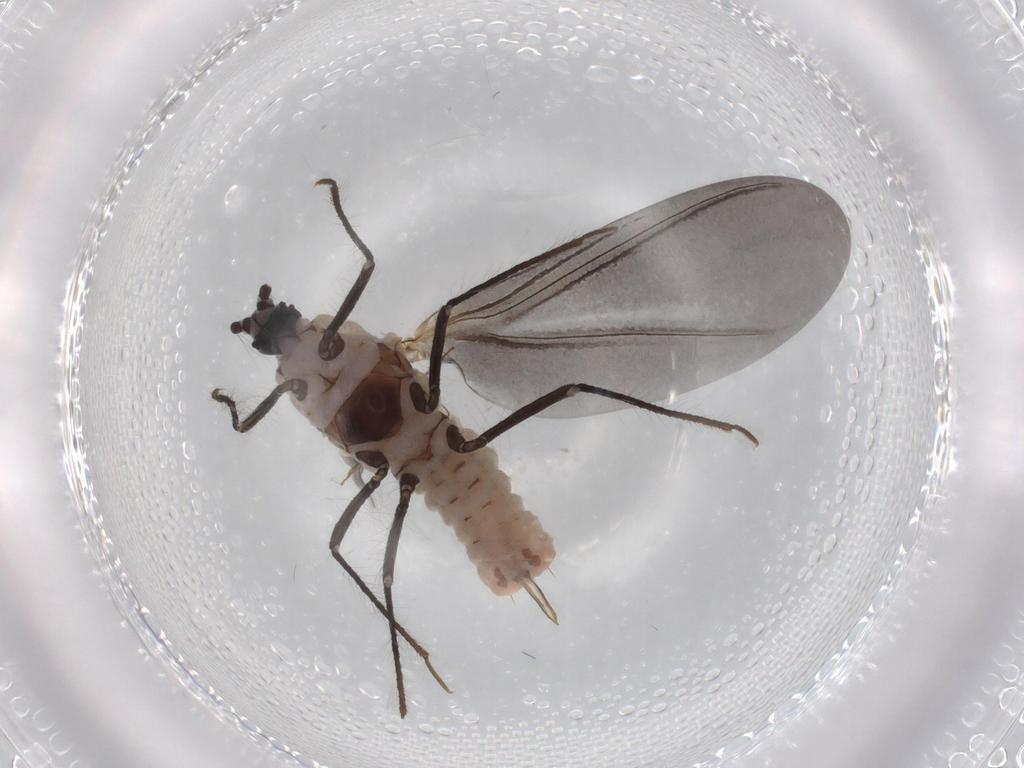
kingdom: Animalia
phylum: Arthropoda
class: Insecta
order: Hemiptera
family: Putoidae
